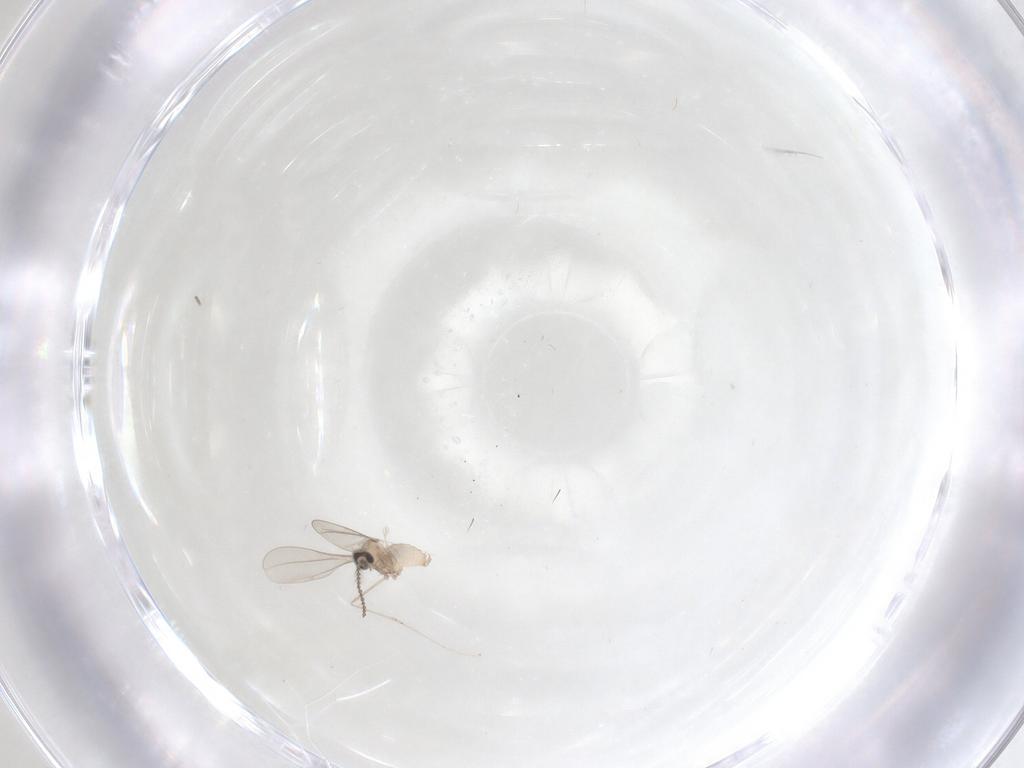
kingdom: Animalia
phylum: Arthropoda
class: Insecta
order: Diptera
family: Cecidomyiidae
